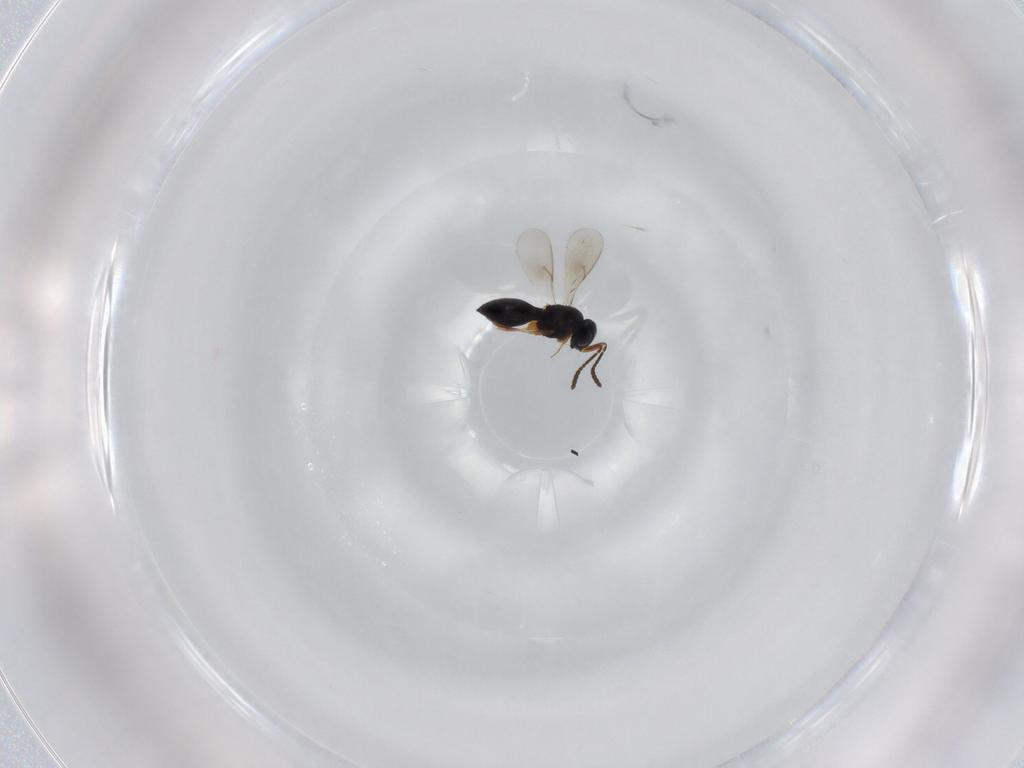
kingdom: Animalia
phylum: Arthropoda
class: Insecta
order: Hymenoptera
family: Scelionidae
